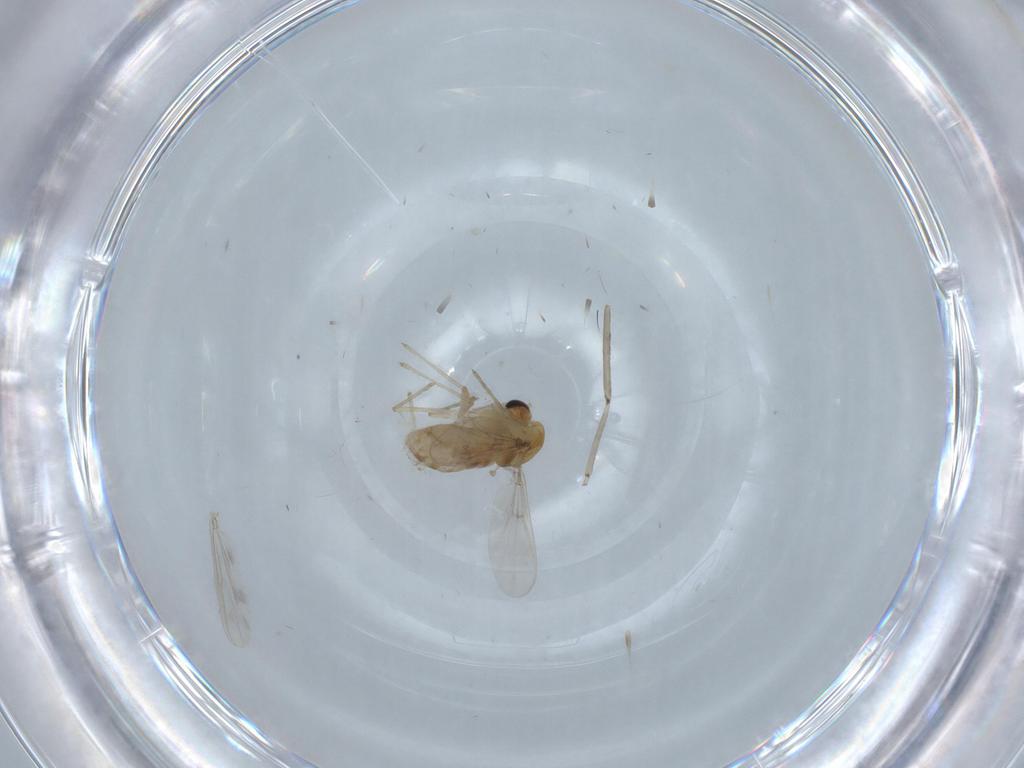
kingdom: Animalia
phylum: Arthropoda
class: Insecta
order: Diptera
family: Chironomidae
